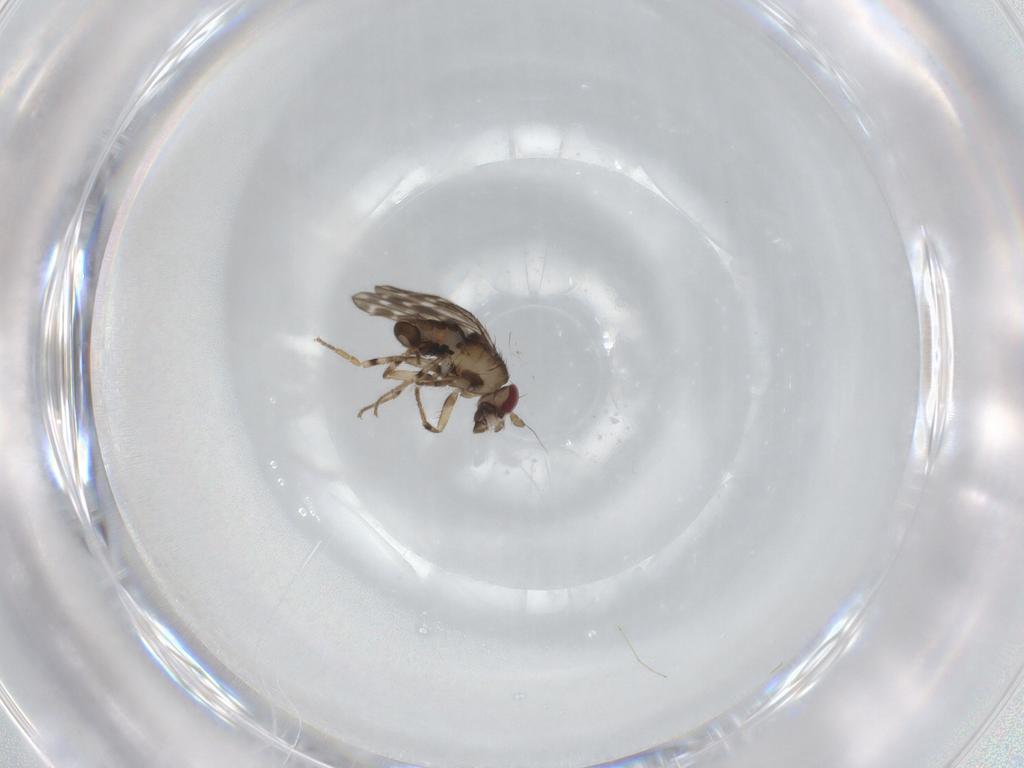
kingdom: Animalia
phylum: Arthropoda
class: Insecta
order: Diptera
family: Sphaeroceridae
